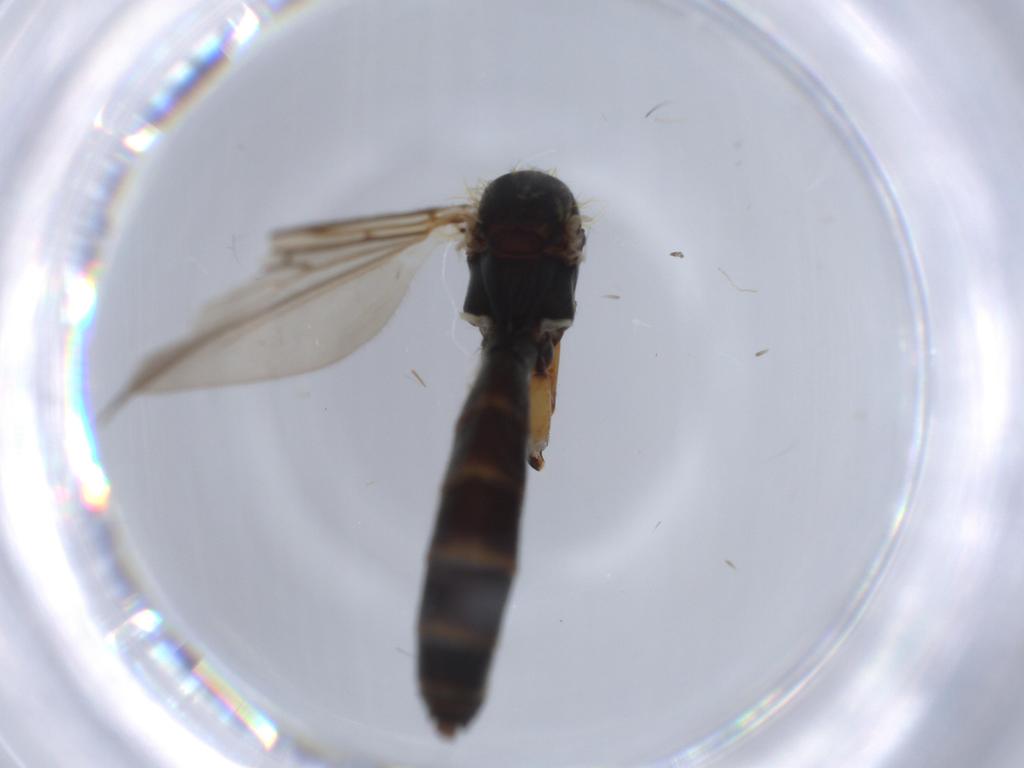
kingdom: Animalia
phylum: Arthropoda
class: Insecta
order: Diptera
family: Mycetophilidae
